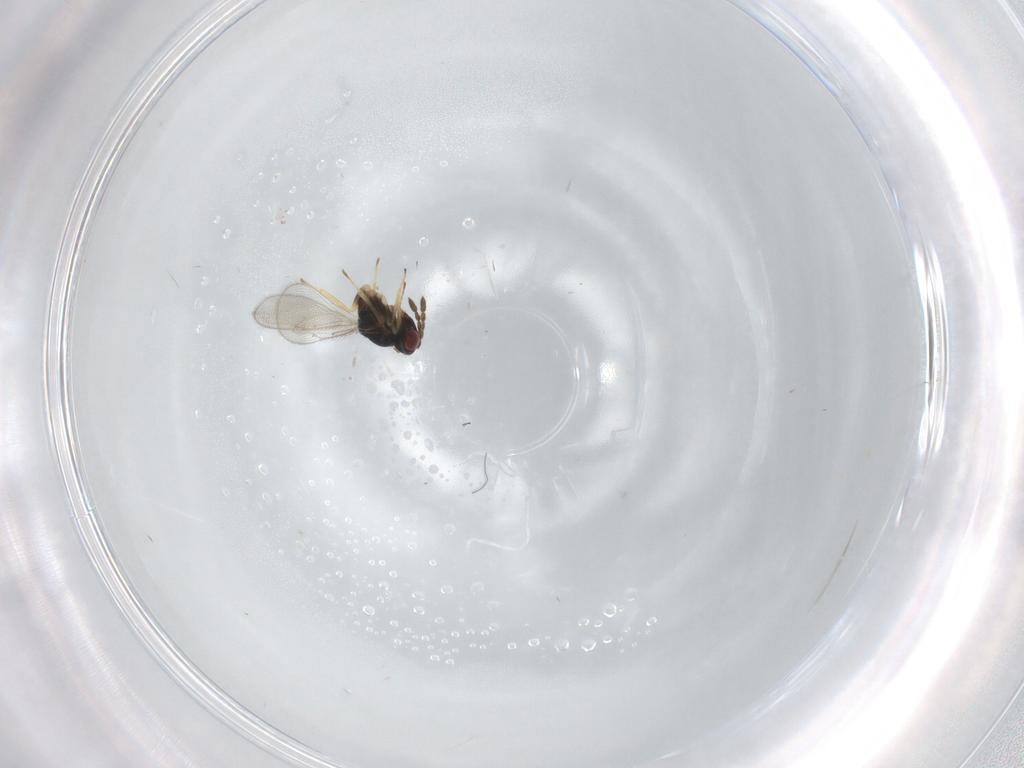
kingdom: Animalia
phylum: Arthropoda
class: Insecta
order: Hymenoptera
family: Eulophidae
